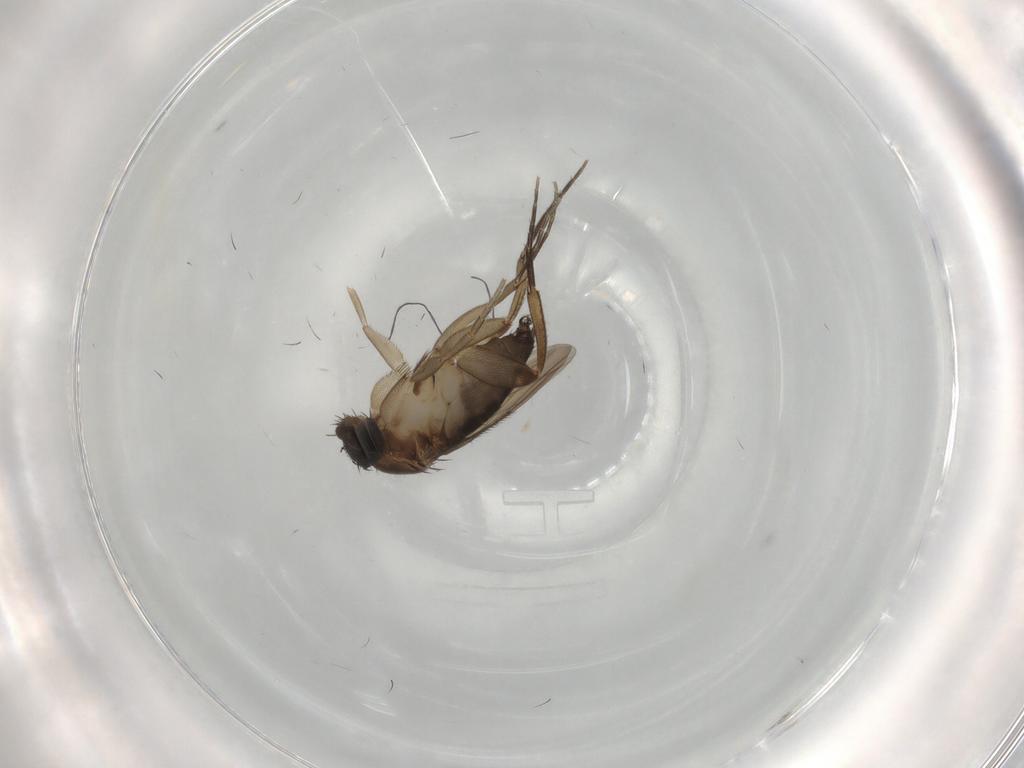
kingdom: Animalia
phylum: Arthropoda
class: Insecta
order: Diptera
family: Phoridae
